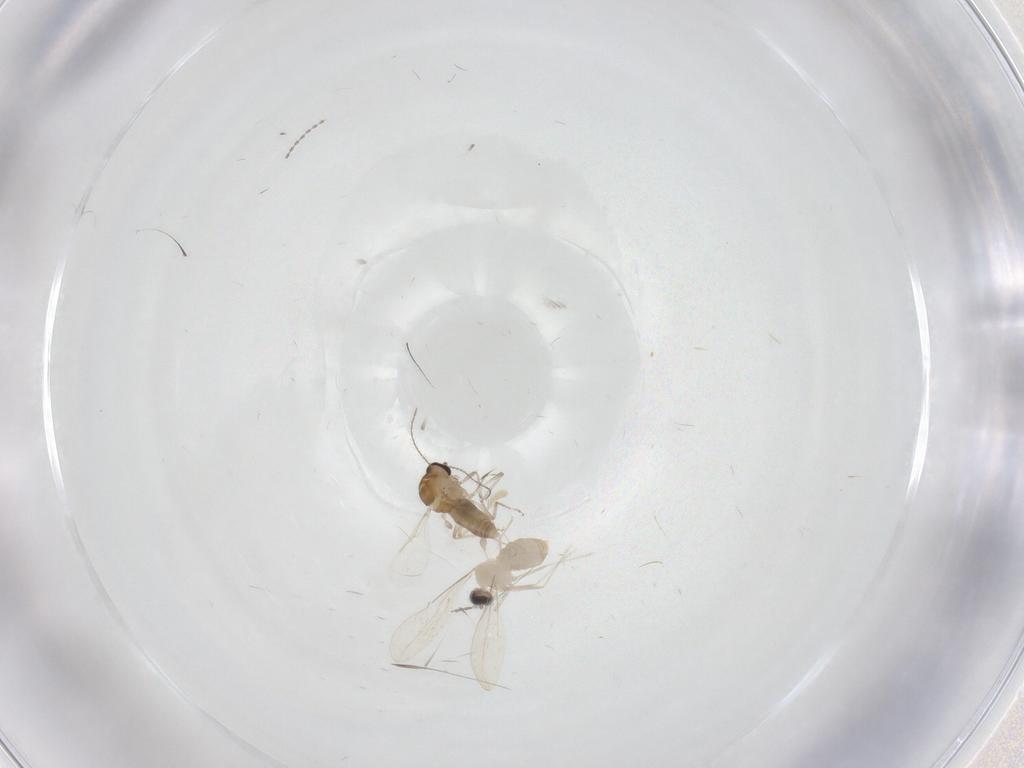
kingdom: Animalia
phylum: Arthropoda
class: Insecta
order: Diptera
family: Cecidomyiidae
